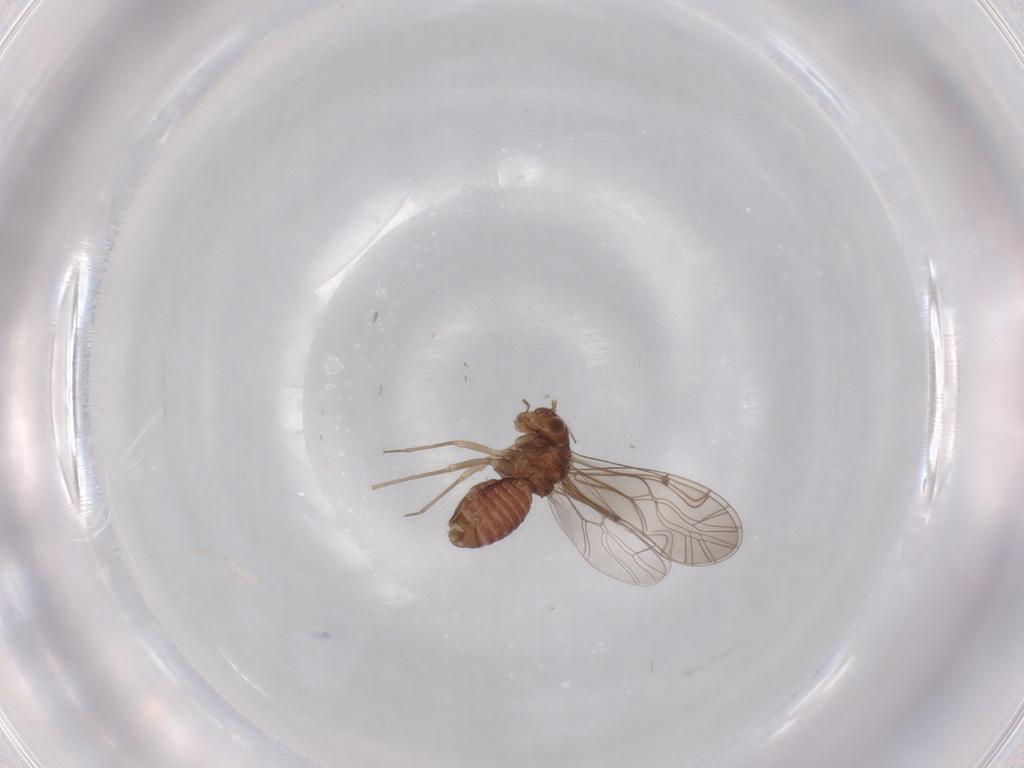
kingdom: Animalia
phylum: Arthropoda
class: Insecta
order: Psocodea
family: Lachesillidae
